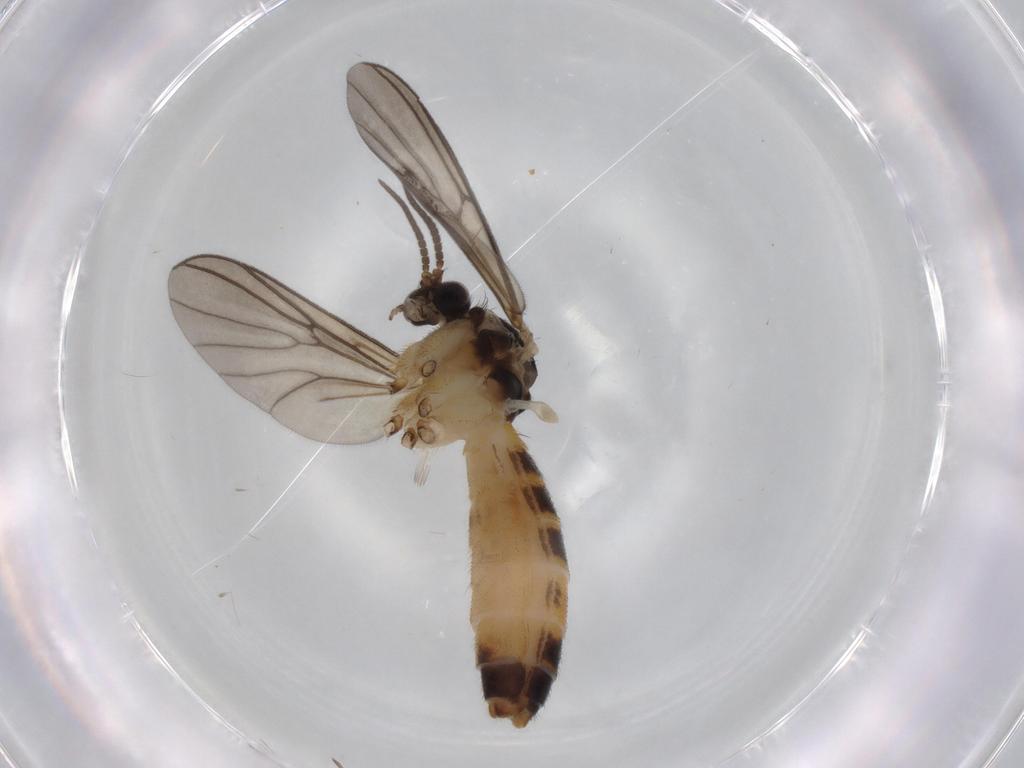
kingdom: Animalia
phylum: Arthropoda
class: Insecta
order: Diptera
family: Mycetophilidae
